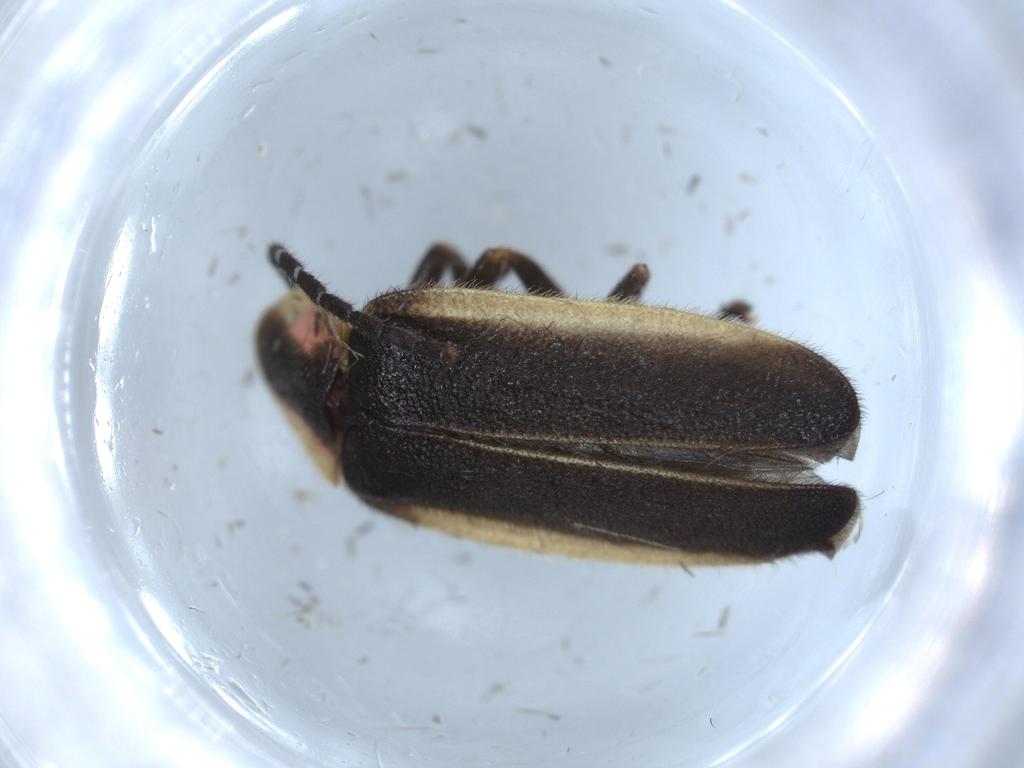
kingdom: Animalia
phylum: Arthropoda
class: Insecta
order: Coleoptera
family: Lampyridae
